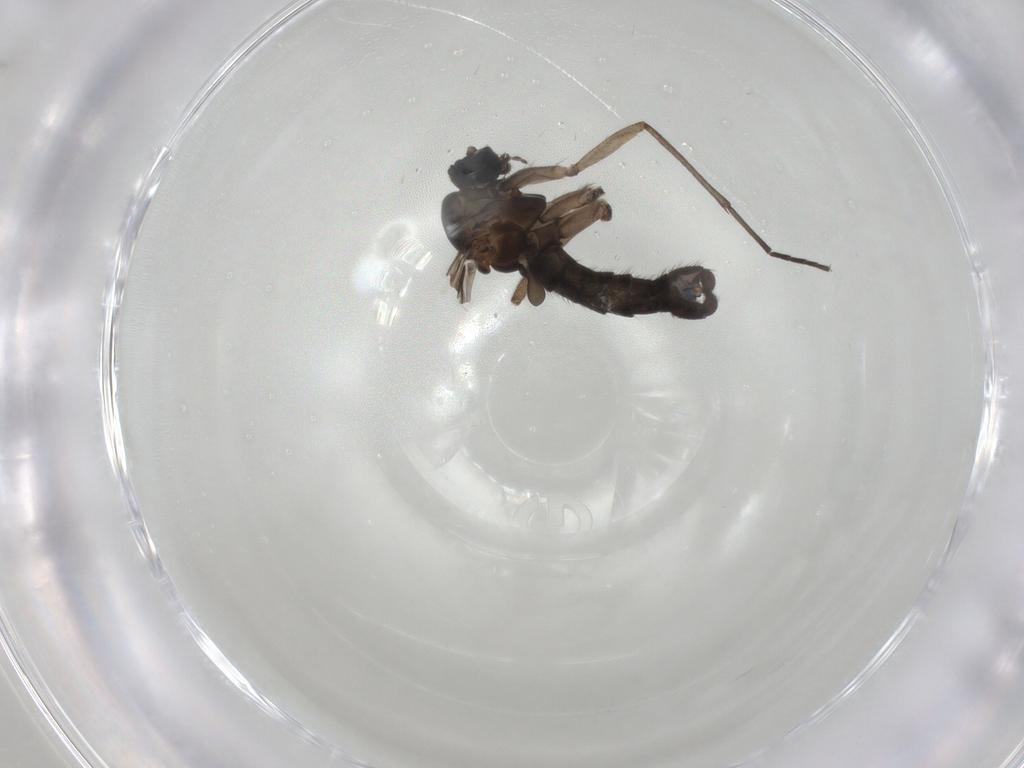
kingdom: Animalia
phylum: Arthropoda
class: Insecta
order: Diptera
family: Sciaridae
